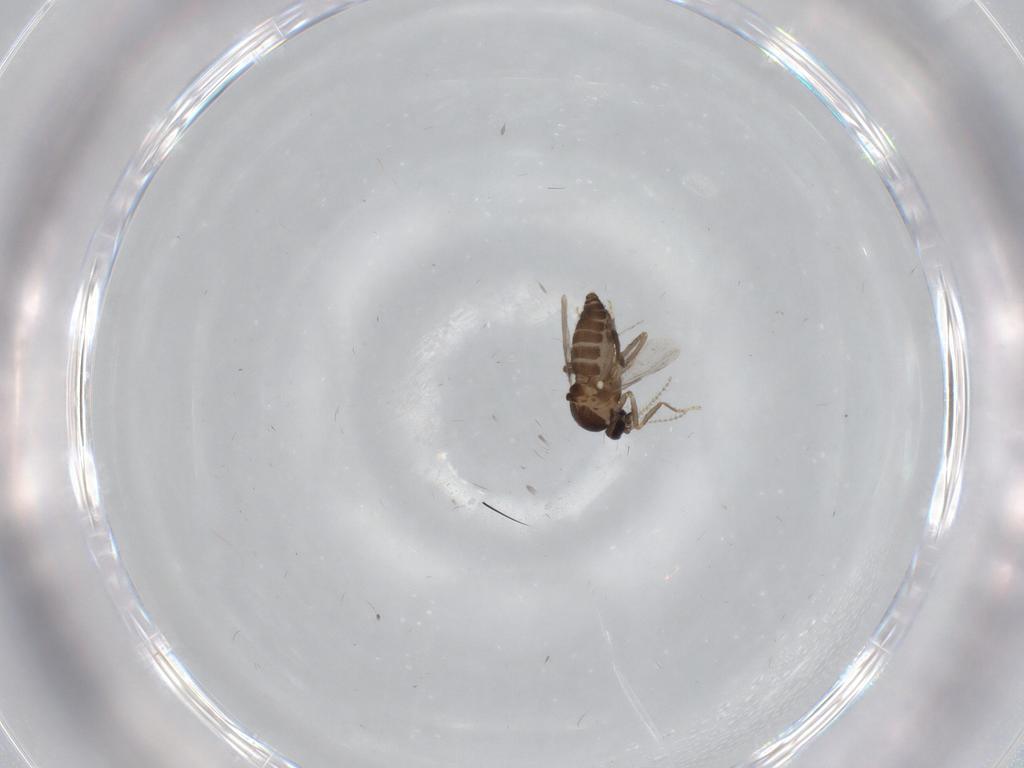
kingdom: Animalia
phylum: Arthropoda
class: Insecta
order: Diptera
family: Ceratopogonidae
